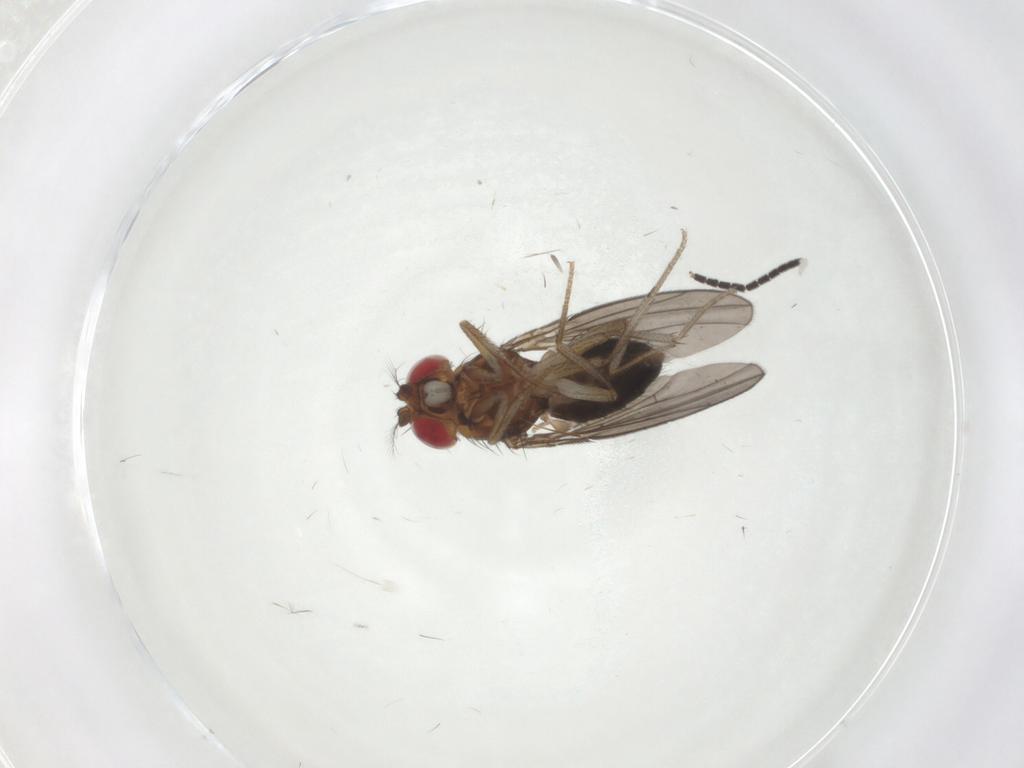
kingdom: Animalia
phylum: Arthropoda
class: Insecta
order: Diptera
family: Drosophilidae
